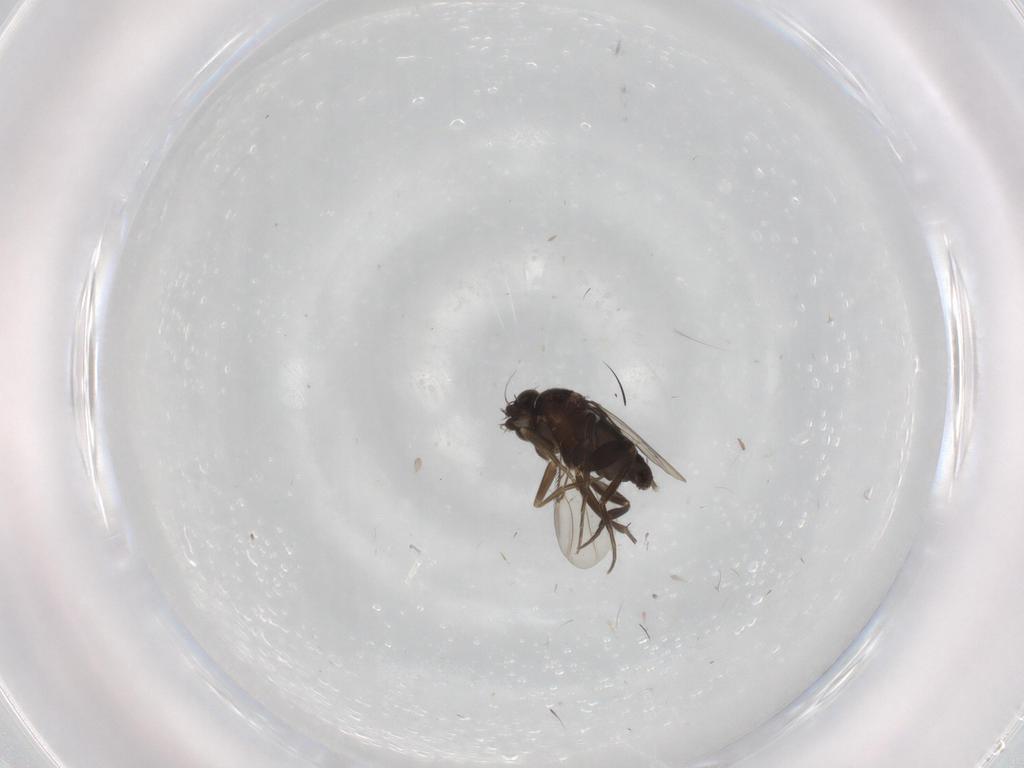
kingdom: Animalia
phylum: Arthropoda
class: Insecta
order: Diptera
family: Phoridae
